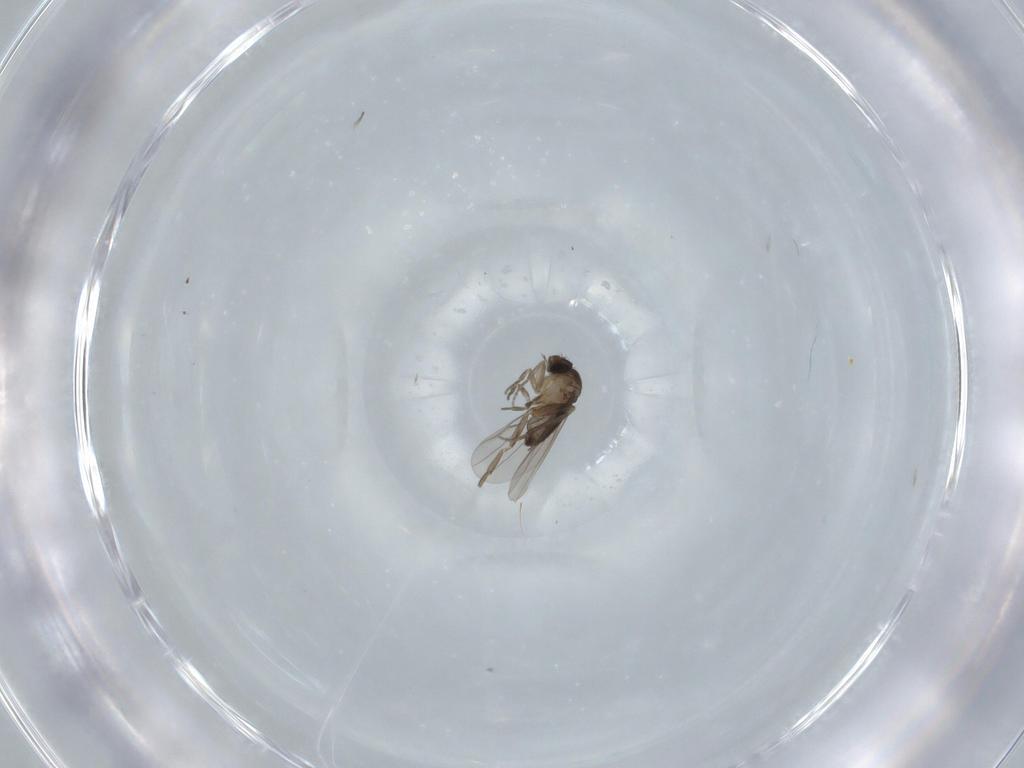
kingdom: Animalia
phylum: Arthropoda
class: Insecta
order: Diptera
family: Phoridae
